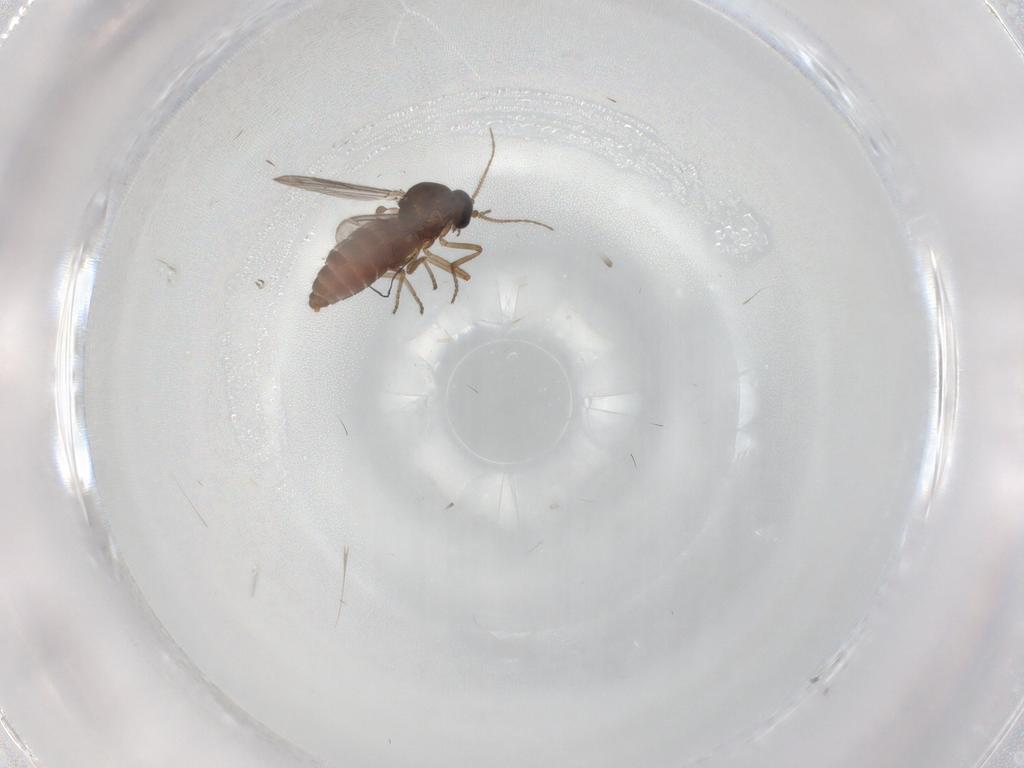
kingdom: Animalia
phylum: Arthropoda
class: Insecta
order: Diptera
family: Ceratopogonidae
